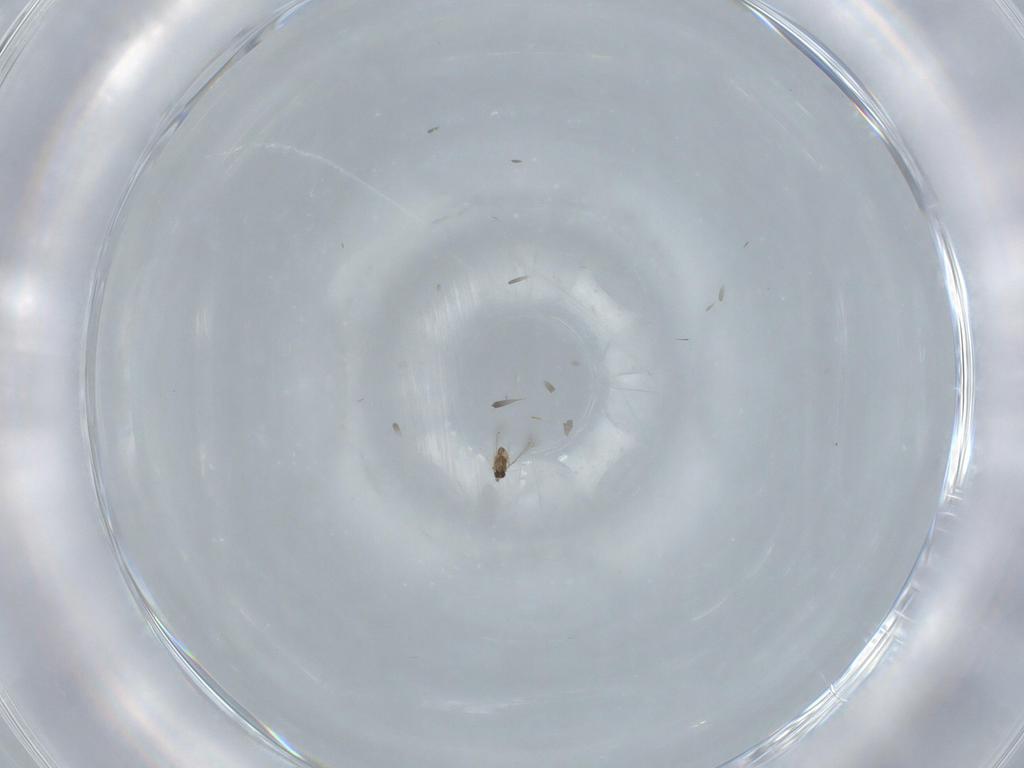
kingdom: Animalia
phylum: Arthropoda
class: Insecta
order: Hymenoptera
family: Mymaridae
